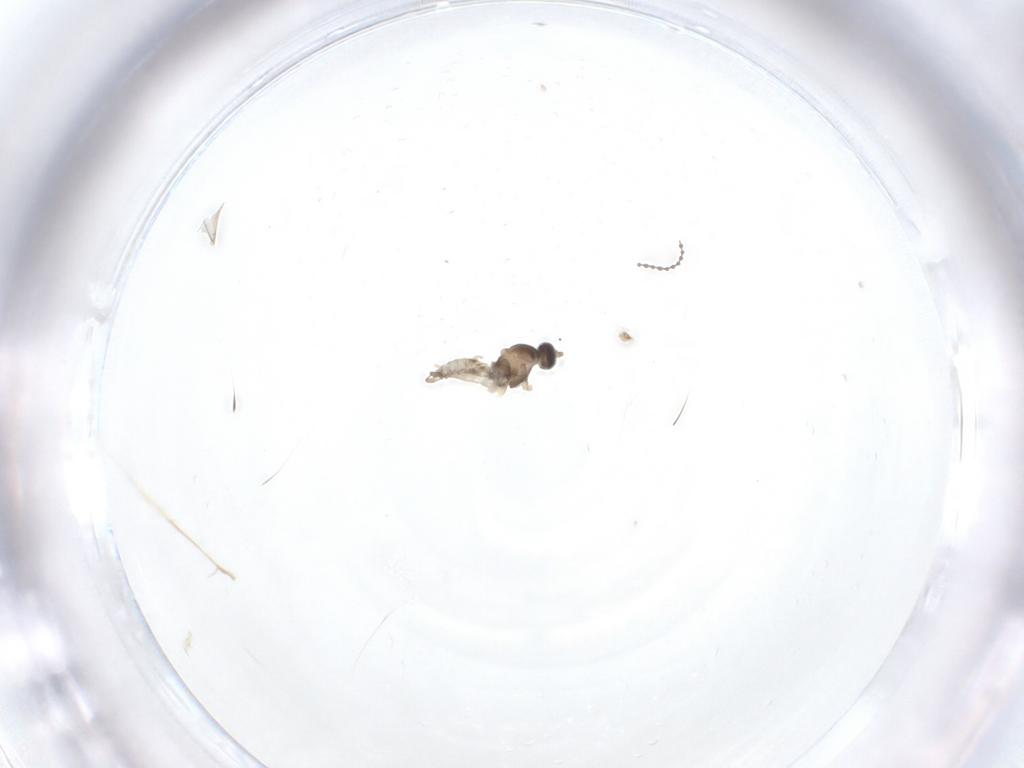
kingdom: Animalia
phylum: Arthropoda
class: Insecta
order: Diptera
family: Cecidomyiidae
